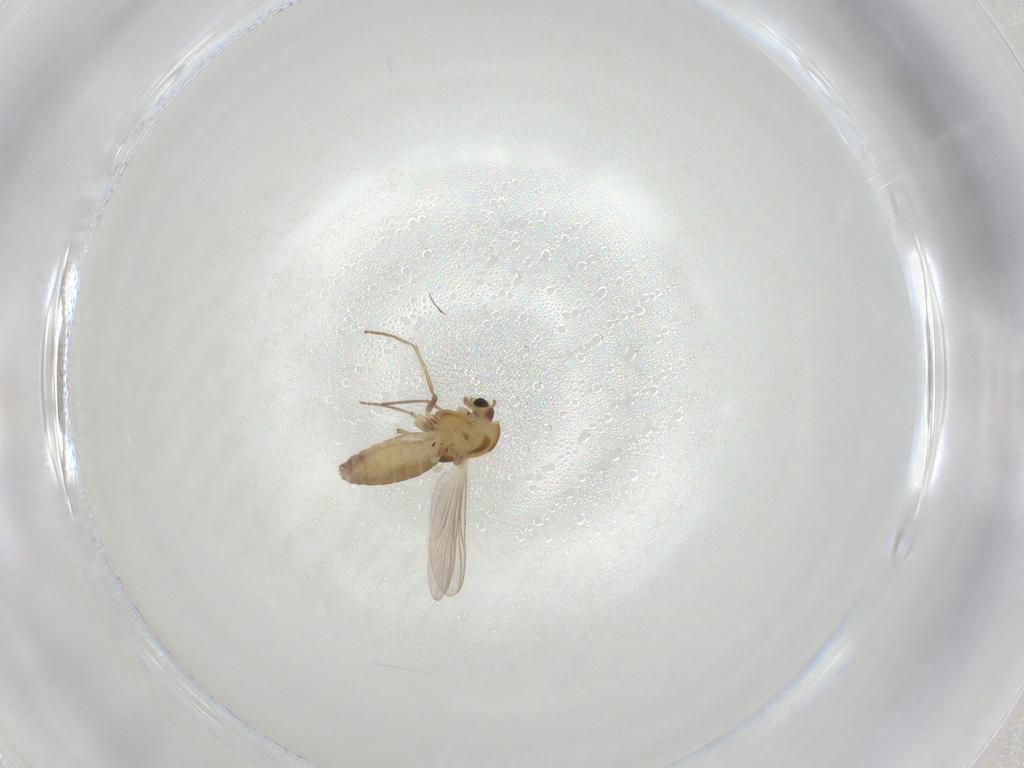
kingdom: Animalia
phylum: Arthropoda
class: Insecta
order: Diptera
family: Chironomidae
